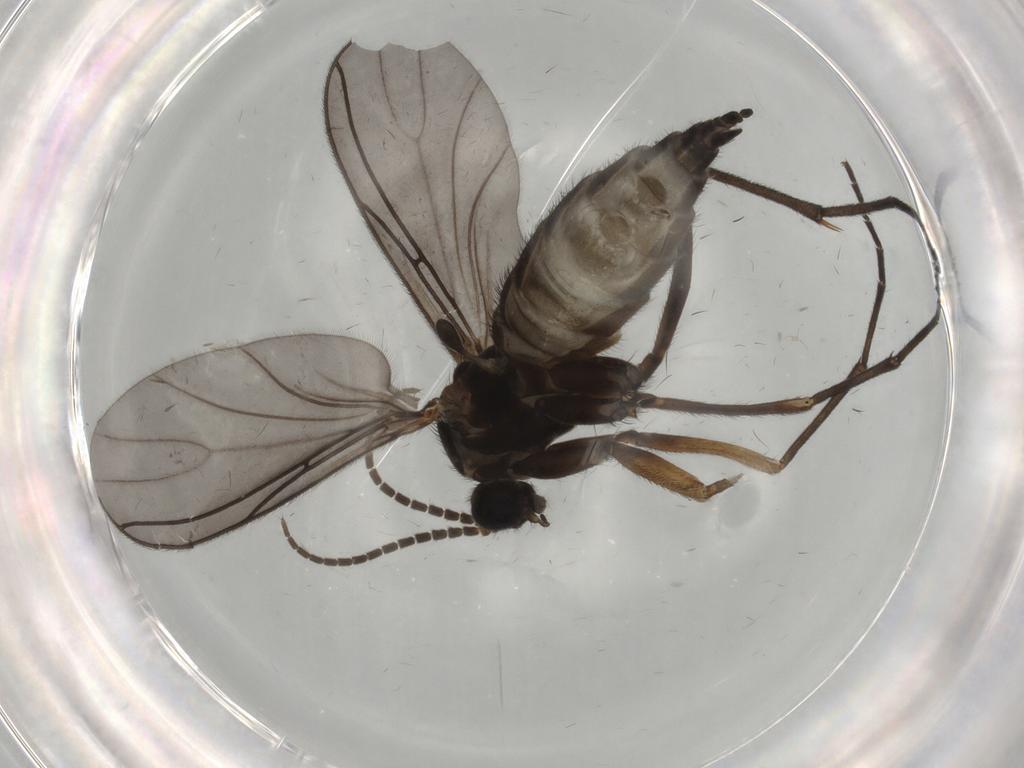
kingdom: Animalia
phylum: Arthropoda
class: Insecta
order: Diptera
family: Sciaridae
